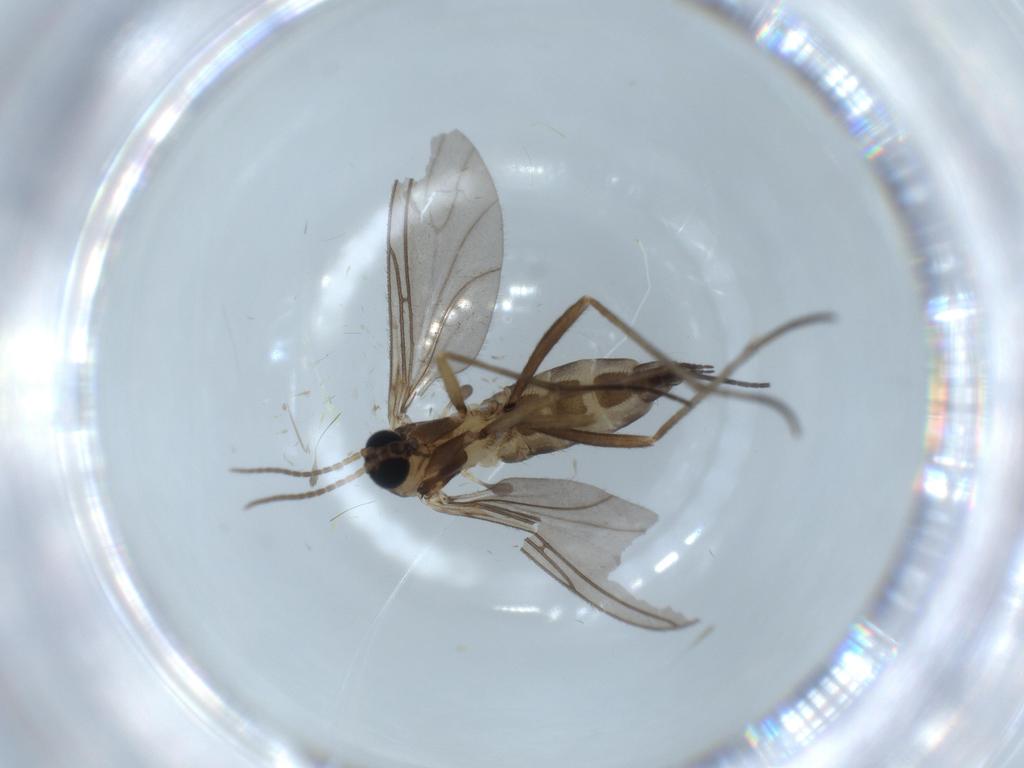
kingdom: Animalia
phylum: Arthropoda
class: Insecta
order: Diptera
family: Sciaridae
